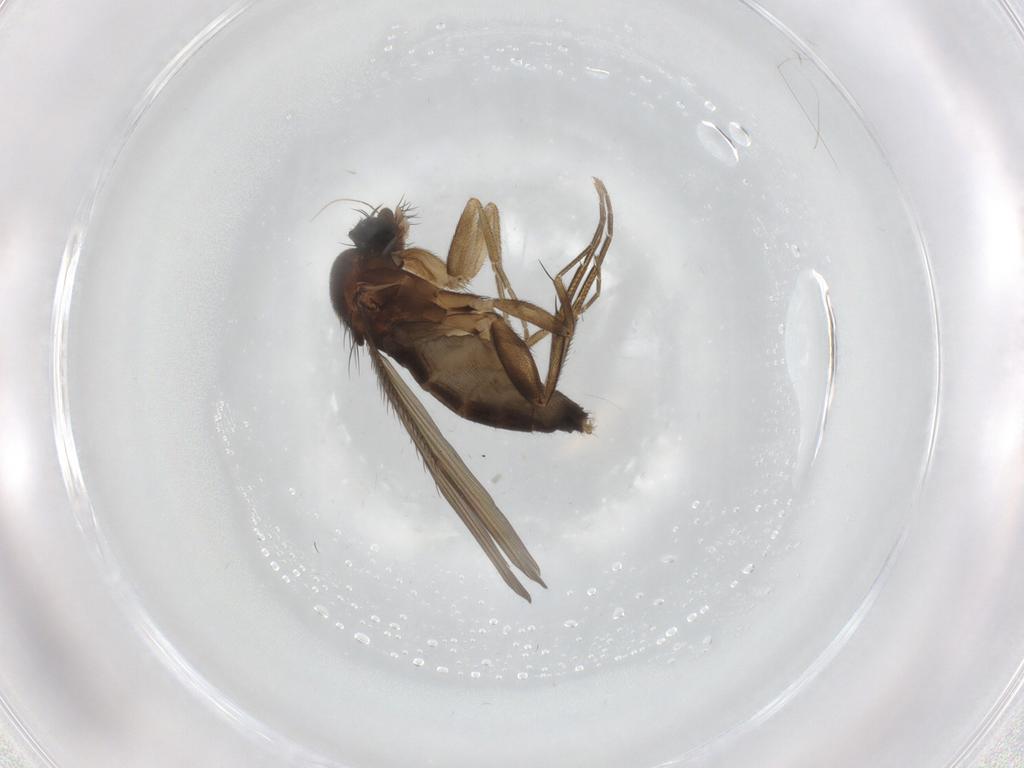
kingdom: Animalia
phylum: Arthropoda
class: Insecta
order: Diptera
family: Phoridae
